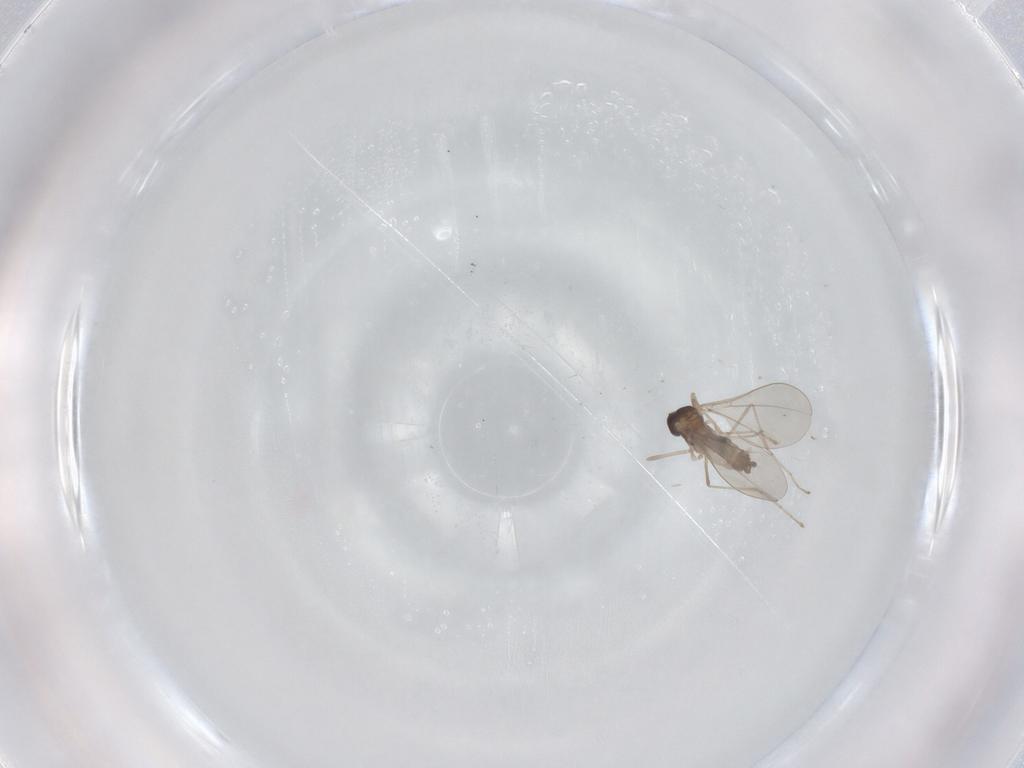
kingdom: Animalia
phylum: Arthropoda
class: Insecta
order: Diptera
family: Cecidomyiidae
